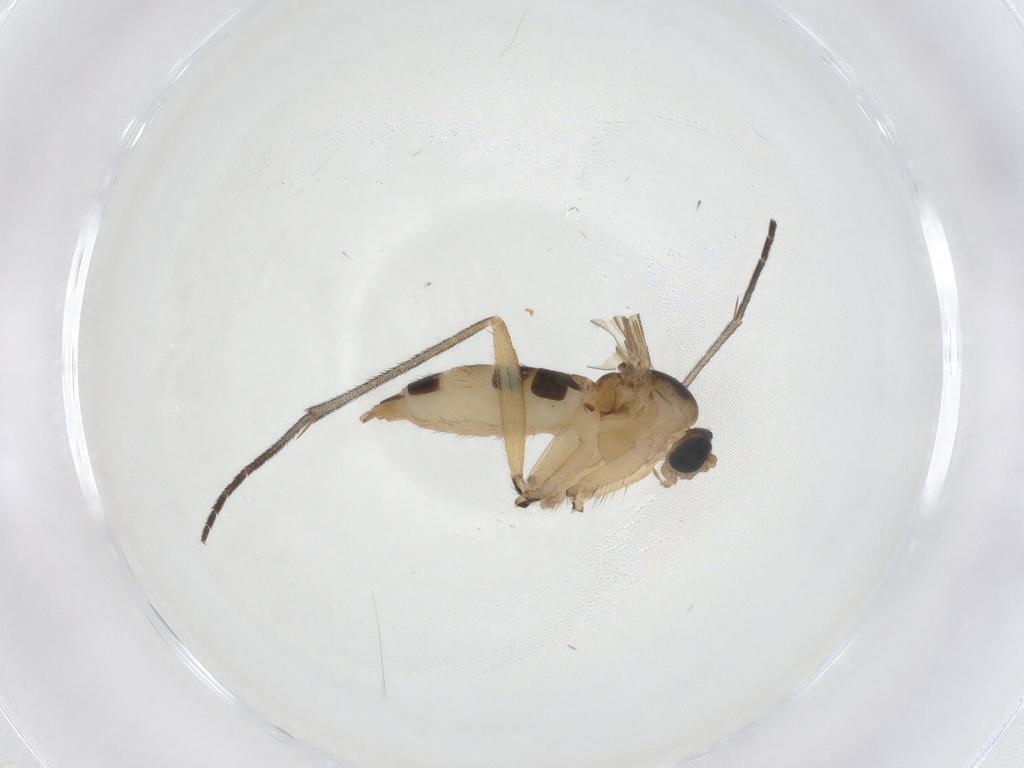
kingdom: Animalia
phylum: Arthropoda
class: Insecta
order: Diptera
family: Sciaridae
